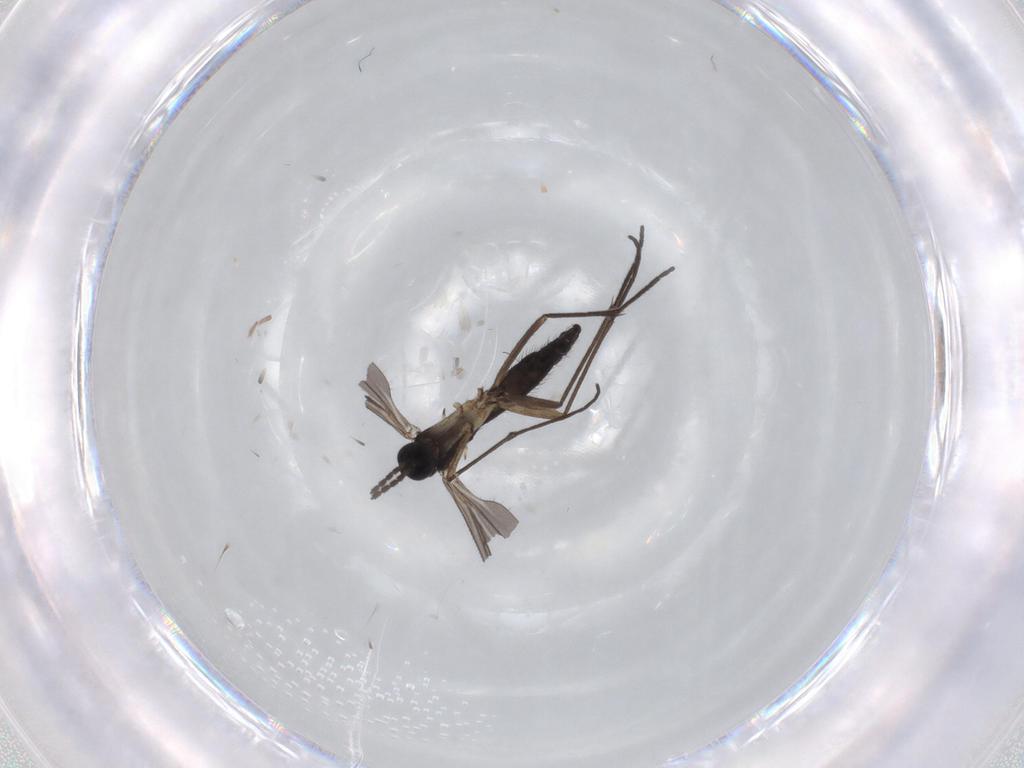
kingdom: Animalia
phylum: Arthropoda
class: Insecta
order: Diptera
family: Sciaridae
